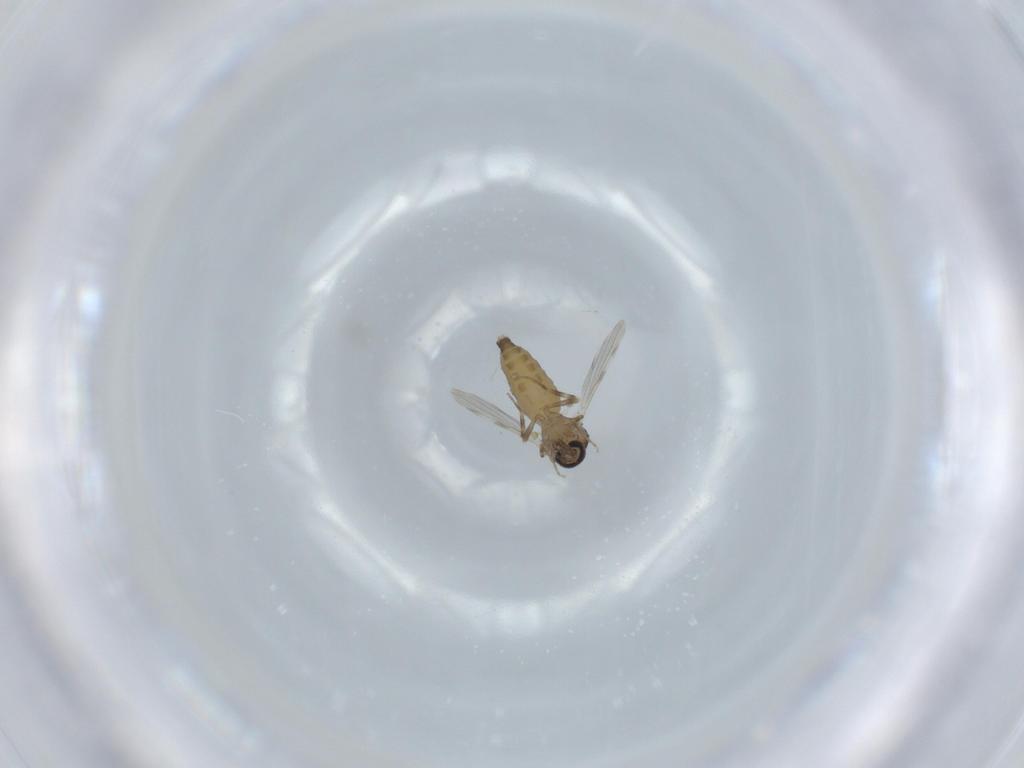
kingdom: Animalia
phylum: Arthropoda
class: Insecta
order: Diptera
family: Ceratopogonidae
